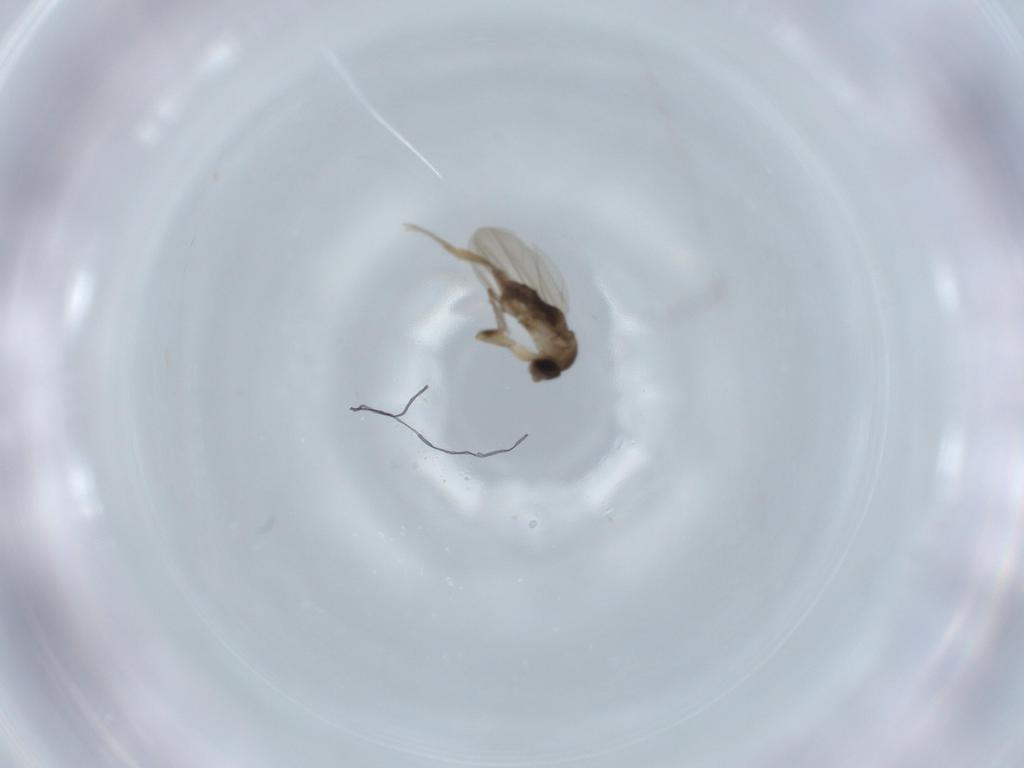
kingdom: Animalia
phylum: Arthropoda
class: Insecta
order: Diptera
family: Phoridae
